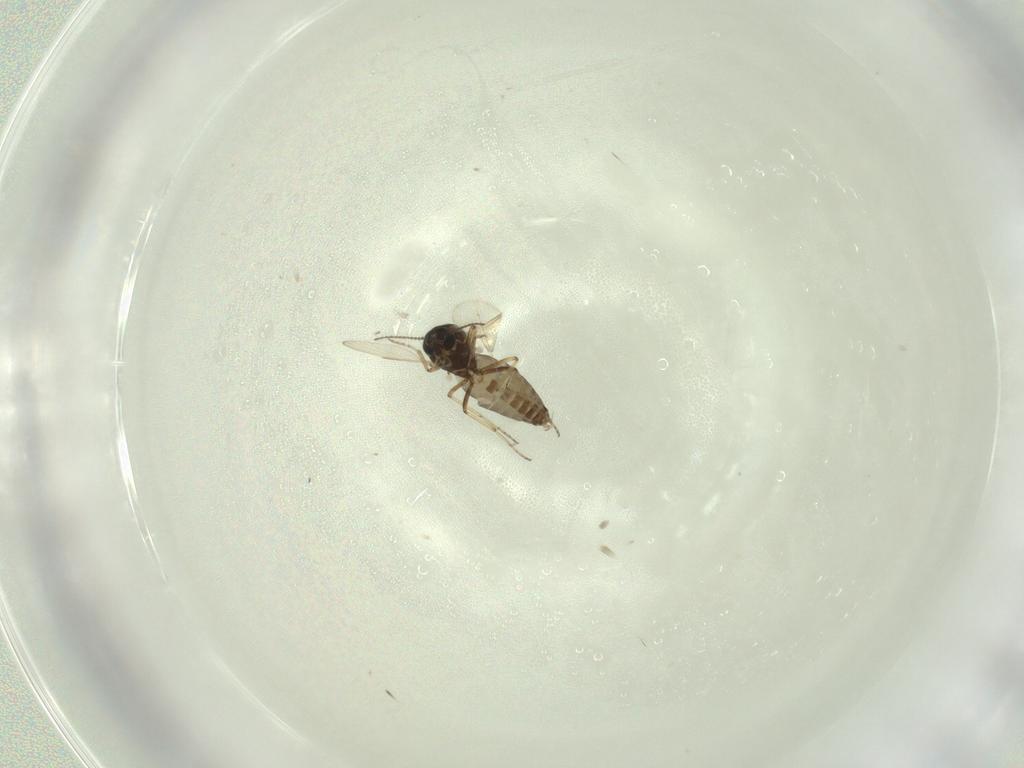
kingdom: Animalia
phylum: Arthropoda
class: Insecta
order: Diptera
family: Ceratopogonidae
